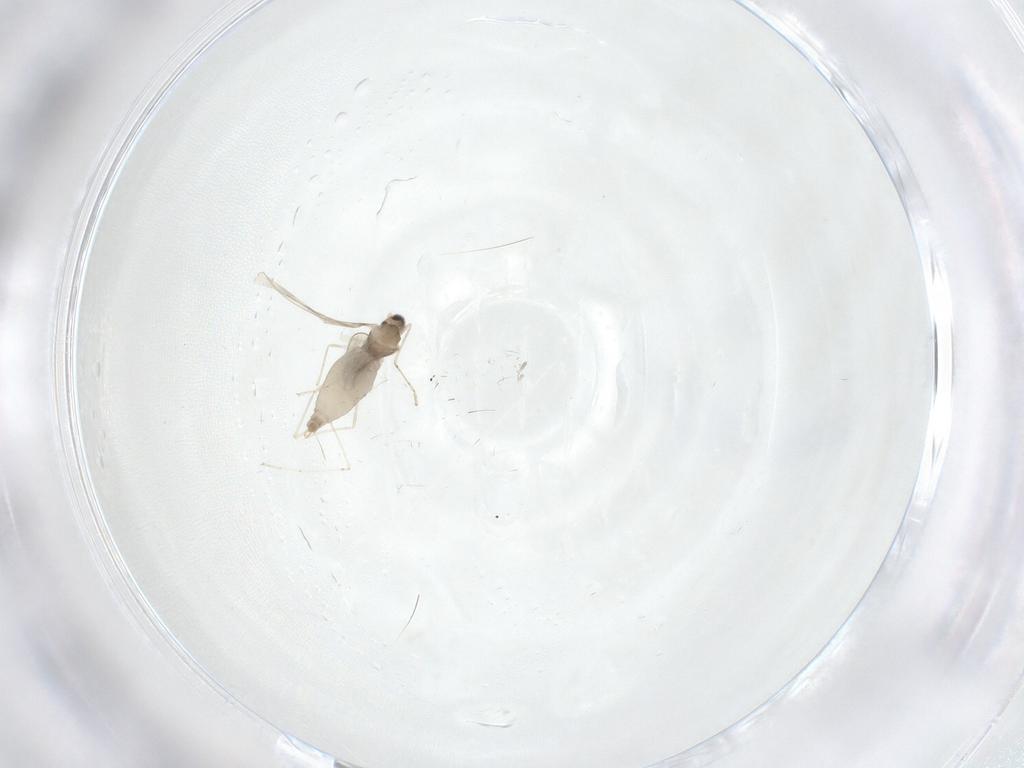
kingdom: Animalia
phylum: Arthropoda
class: Insecta
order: Diptera
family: Cecidomyiidae
